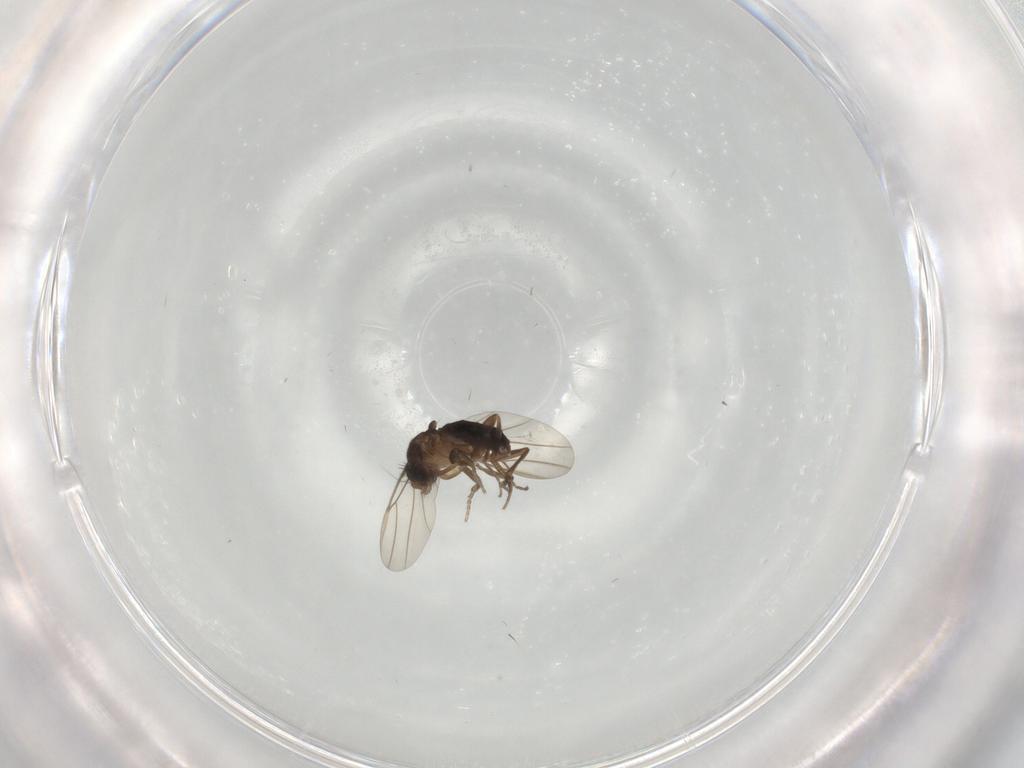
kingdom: Animalia
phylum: Arthropoda
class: Insecta
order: Diptera
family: Phoridae
